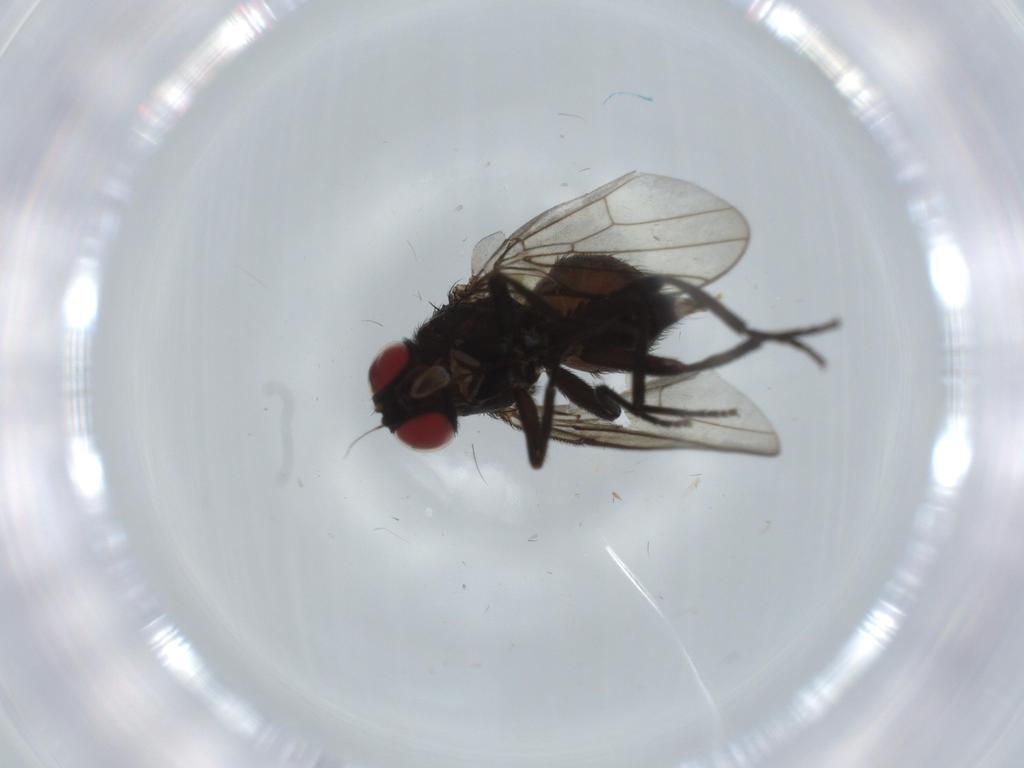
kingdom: Animalia
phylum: Arthropoda
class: Insecta
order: Diptera
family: Agromyzidae
